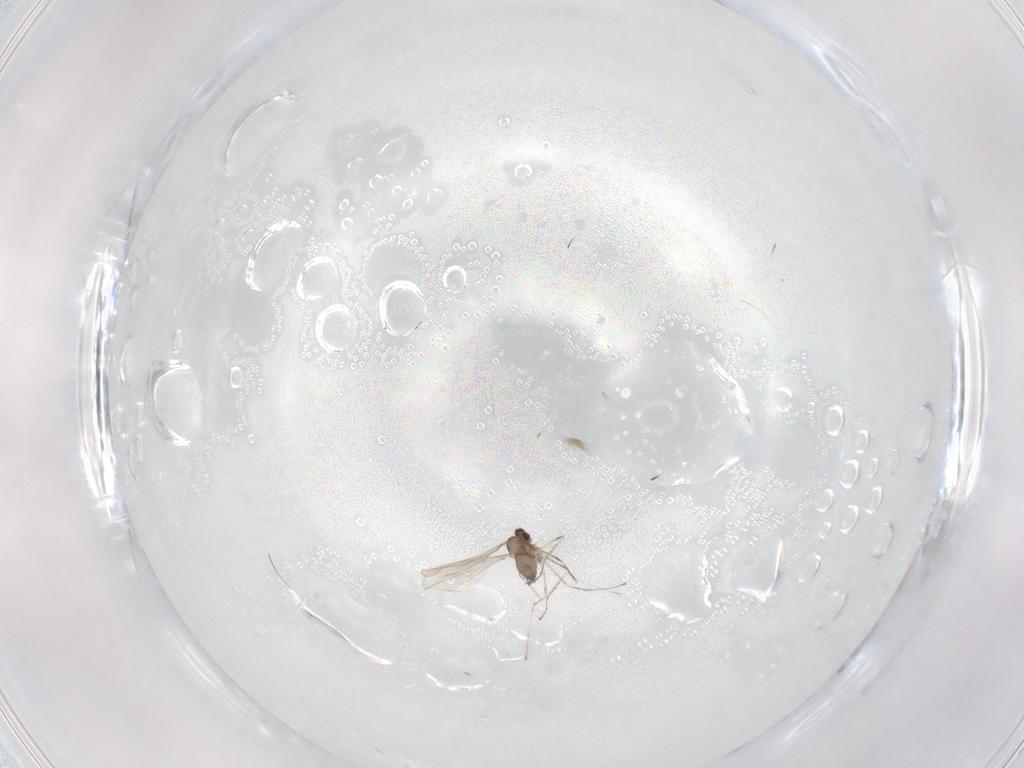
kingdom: Animalia
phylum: Arthropoda
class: Insecta
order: Diptera
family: Cecidomyiidae
